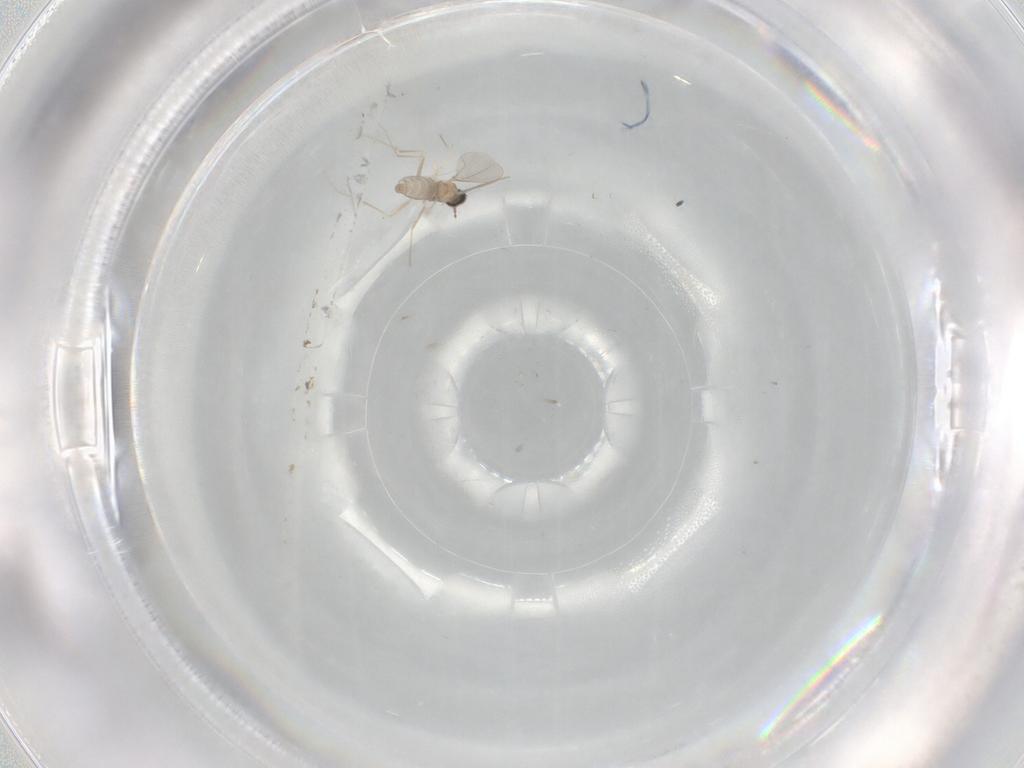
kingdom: Animalia
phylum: Arthropoda
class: Insecta
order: Diptera
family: Cecidomyiidae
